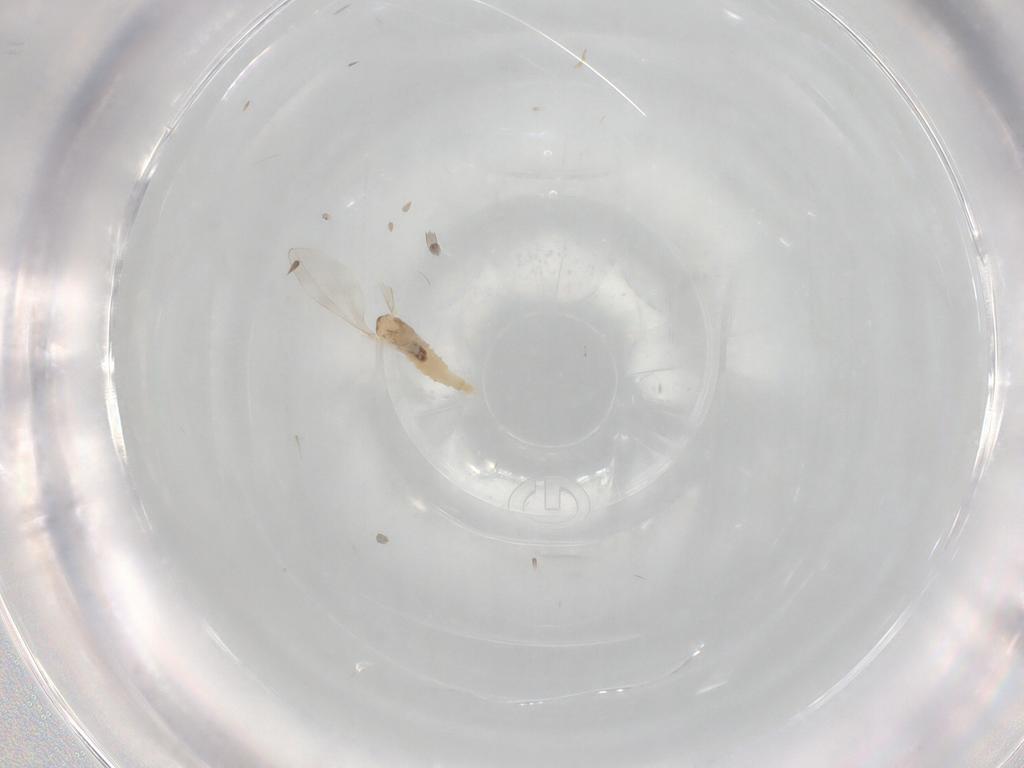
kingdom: Animalia
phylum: Arthropoda
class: Insecta
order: Diptera
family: Cecidomyiidae
